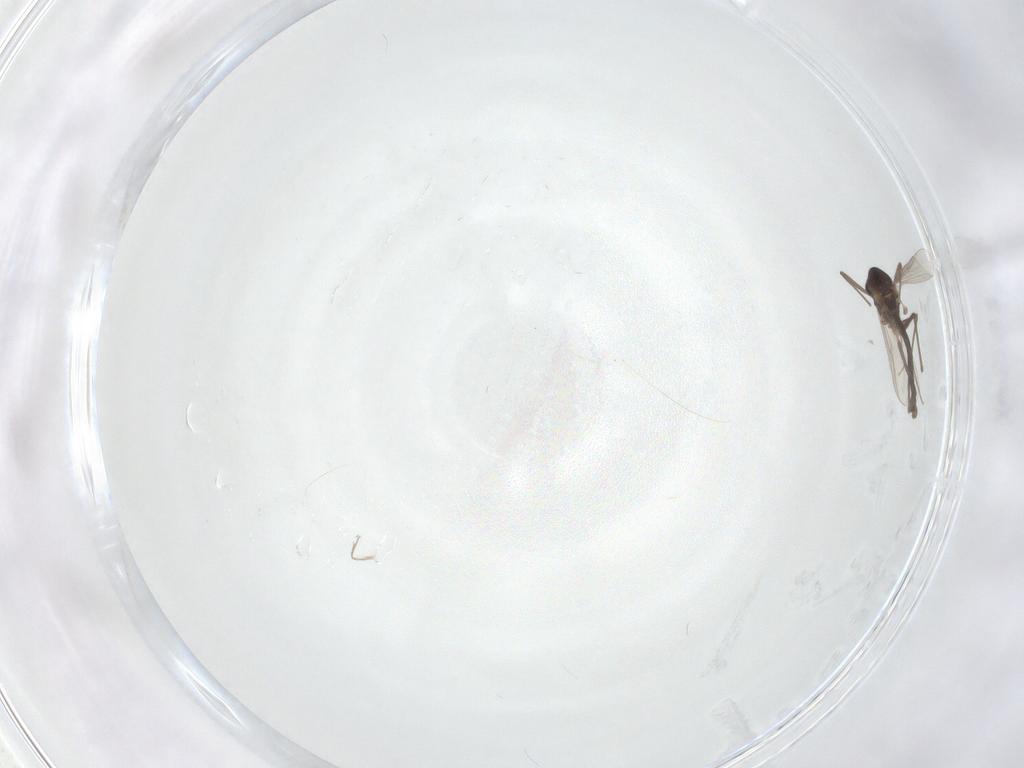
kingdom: Animalia
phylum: Arthropoda
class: Insecta
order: Diptera
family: Chironomidae
